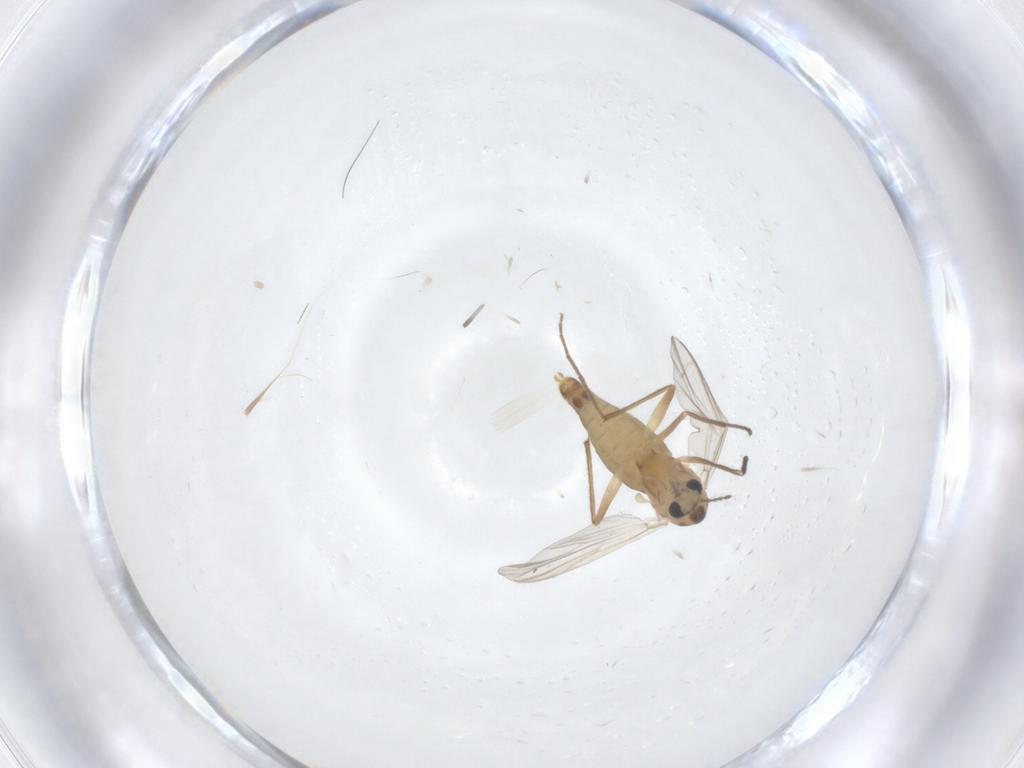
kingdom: Animalia
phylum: Arthropoda
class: Insecta
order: Diptera
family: Chironomidae
